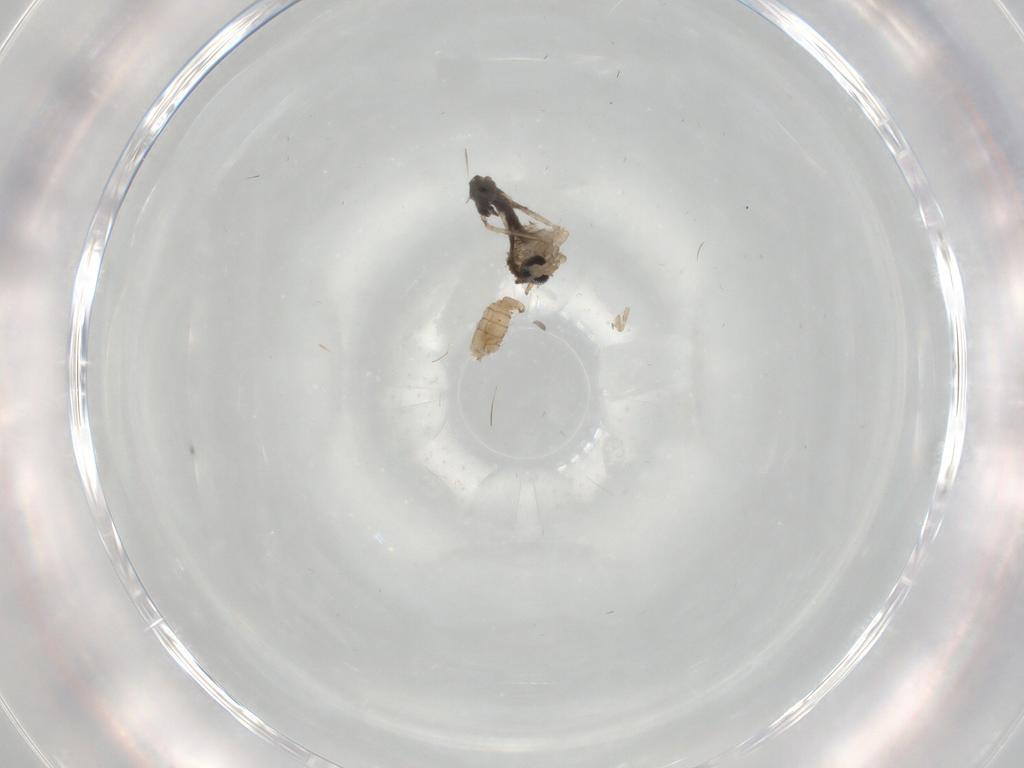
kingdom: Animalia
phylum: Arthropoda
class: Insecta
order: Diptera
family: Cecidomyiidae
